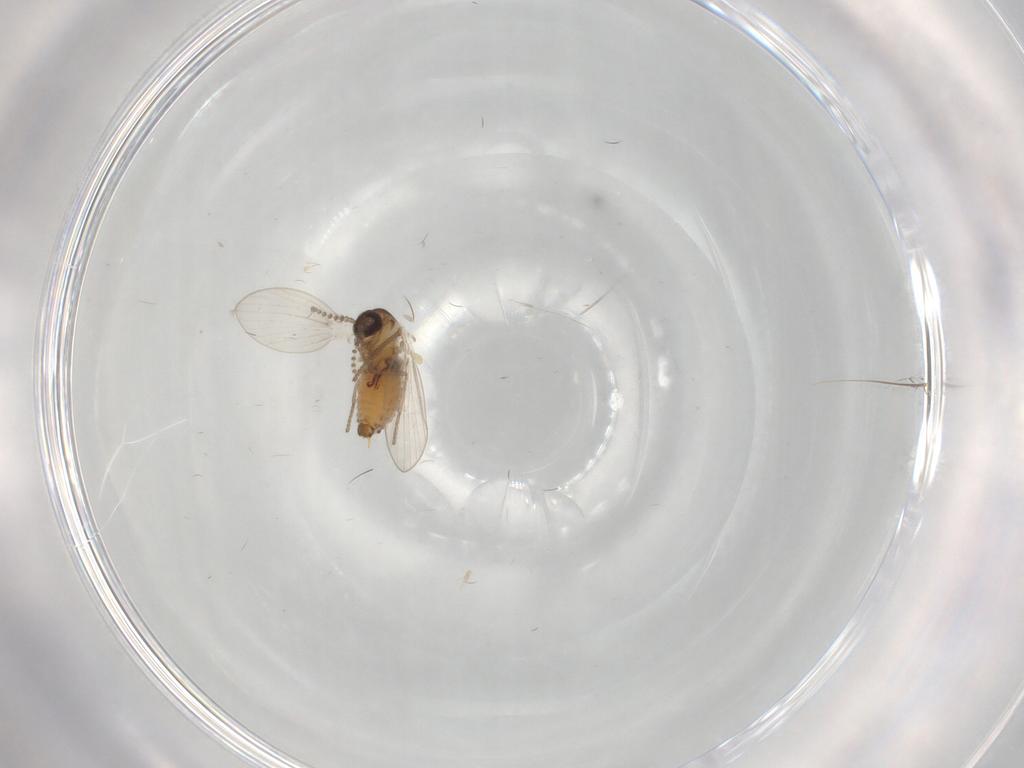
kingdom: Animalia
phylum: Arthropoda
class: Insecta
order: Diptera
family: Psychodidae
